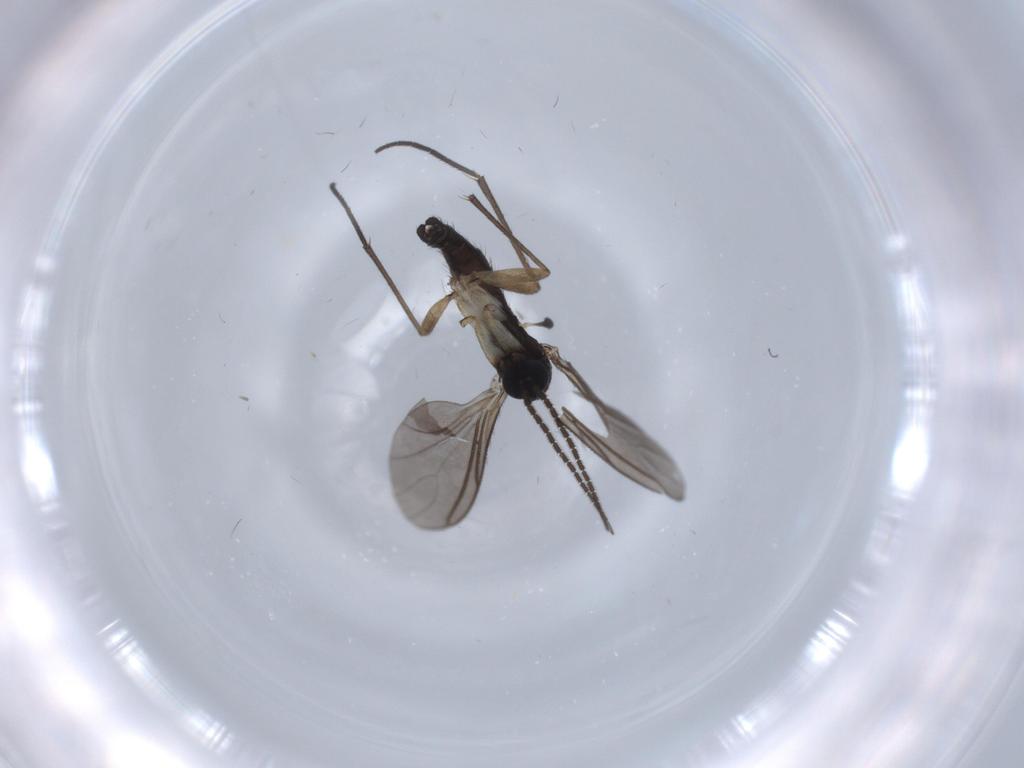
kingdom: Animalia
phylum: Arthropoda
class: Insecta
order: Diptera
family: Sciaridae
